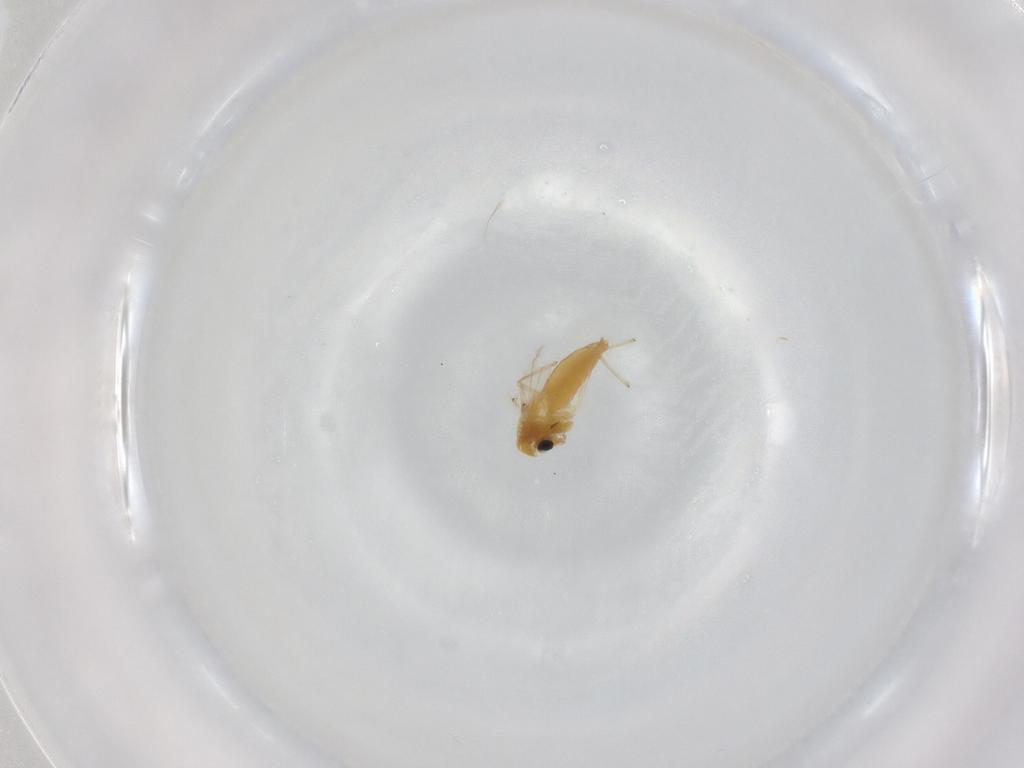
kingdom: Animalia
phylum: Arthropoda
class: Insecta
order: Diptera
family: Chironomidae
